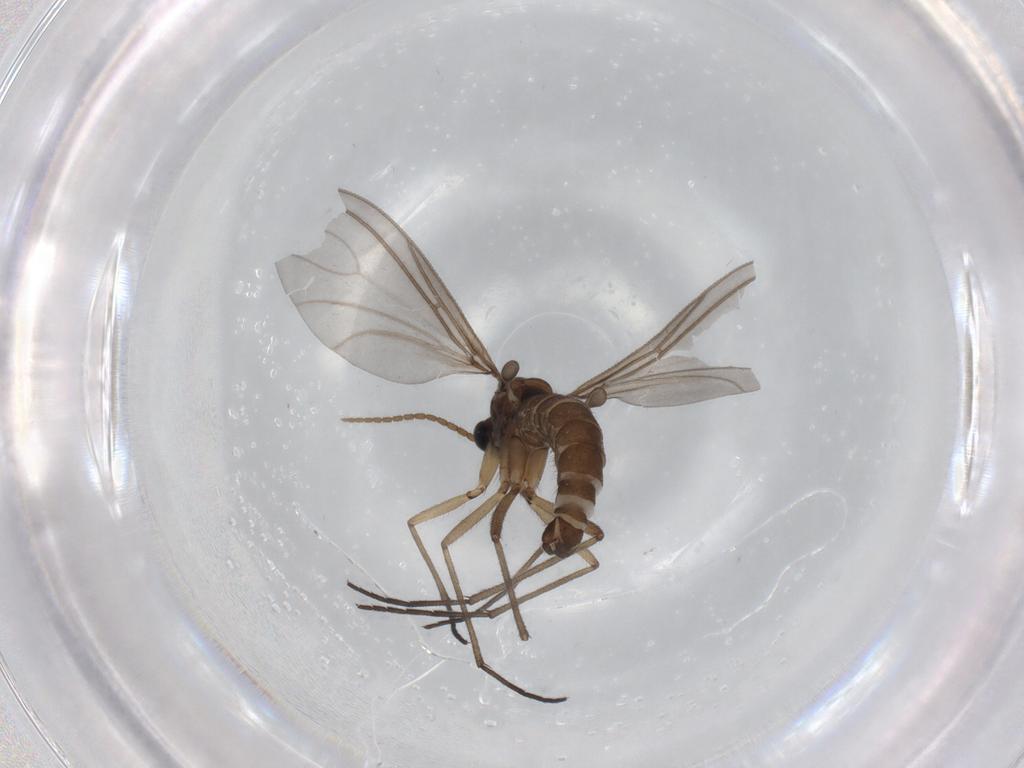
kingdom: Animalia
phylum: Arthropoda
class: Insecta
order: Diptera
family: Cecidomyiidae
